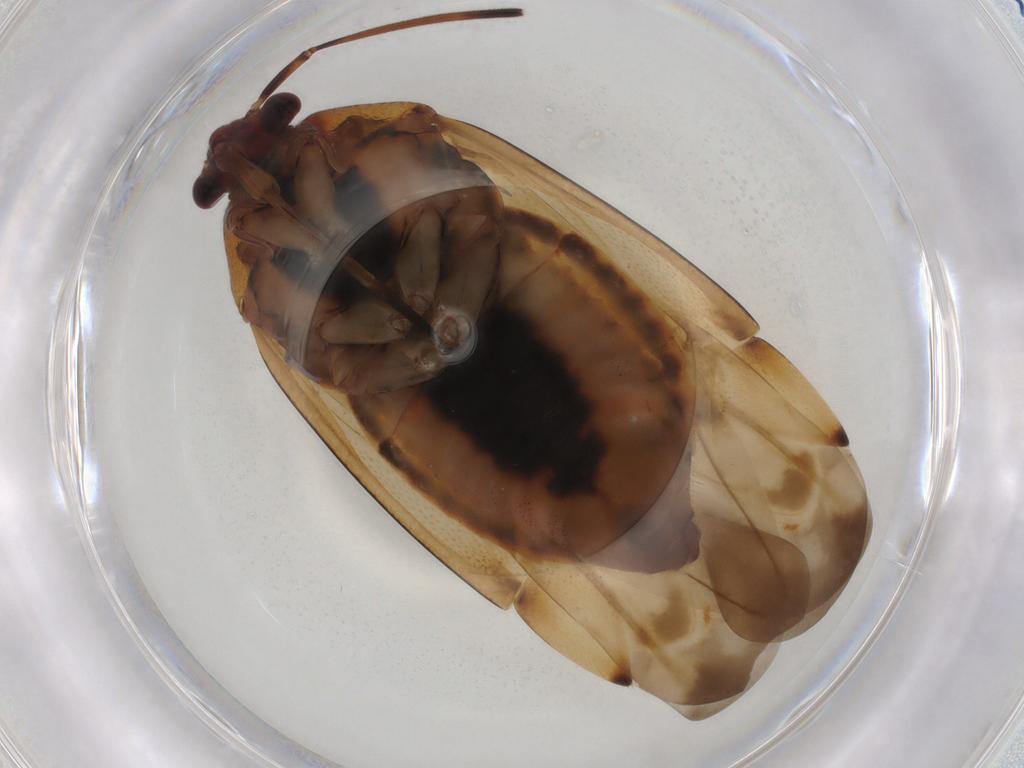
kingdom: Animalia
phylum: Arthropoda
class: Insecta
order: Hemiptera
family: Miridae
